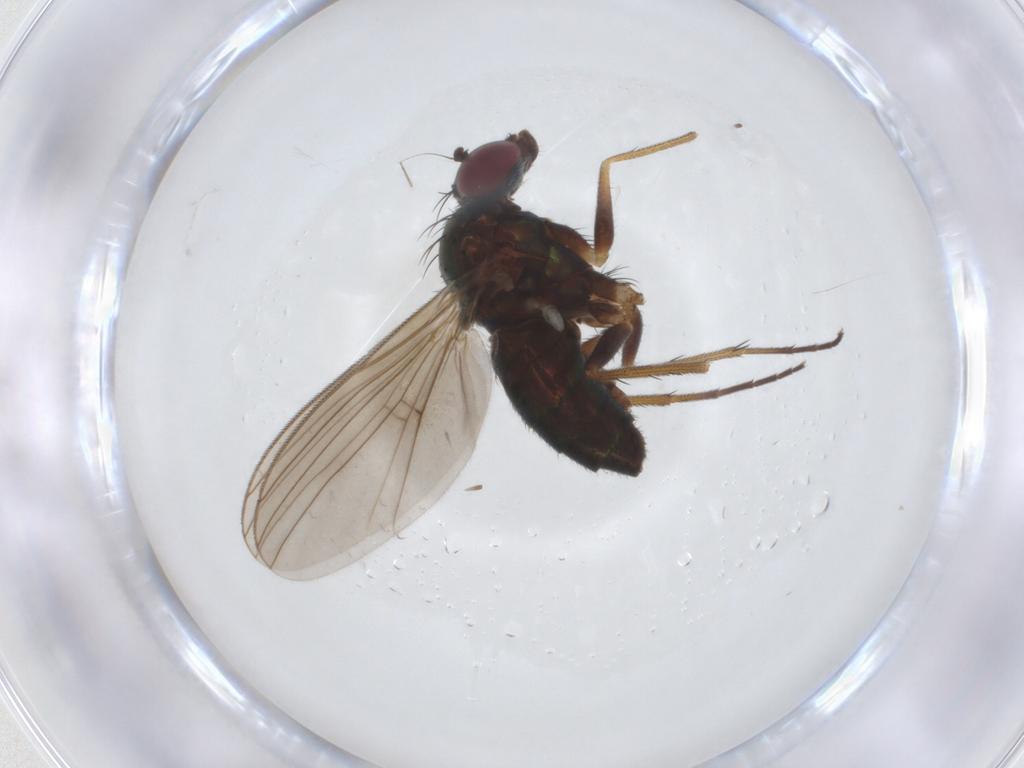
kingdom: Animalia
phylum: Arthropoda
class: Insecta
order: Diptera
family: Dolichopodidae
